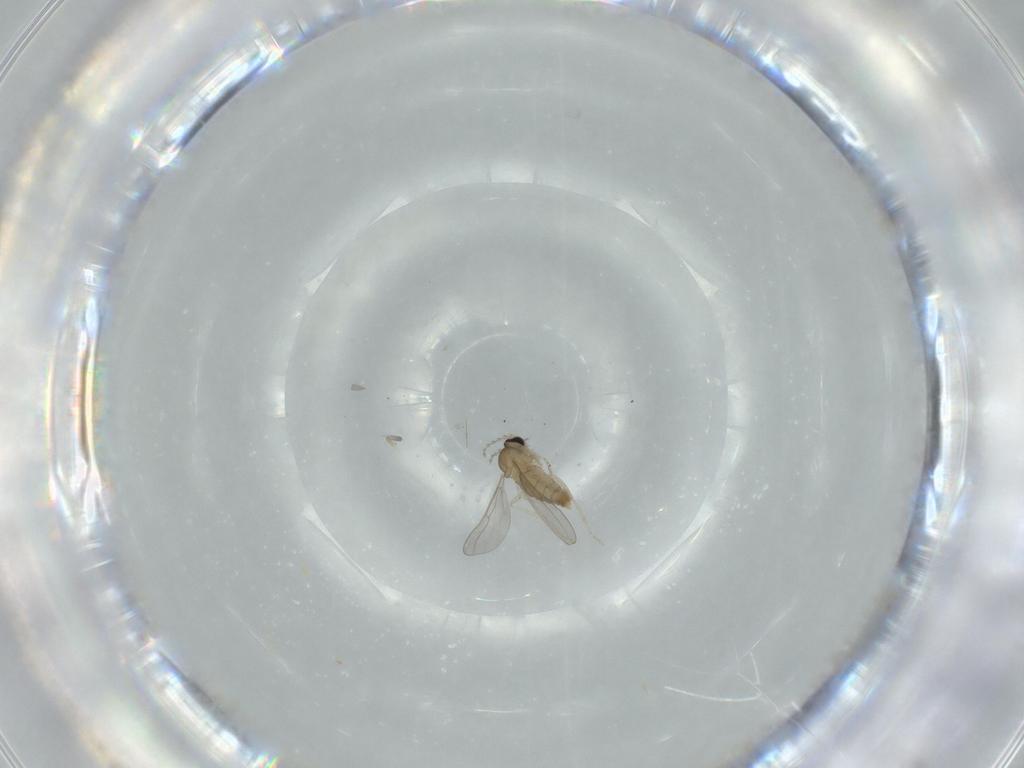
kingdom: Animalia
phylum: Arthropoda
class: Insecta
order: Diptera
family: Cecidomyiidae
